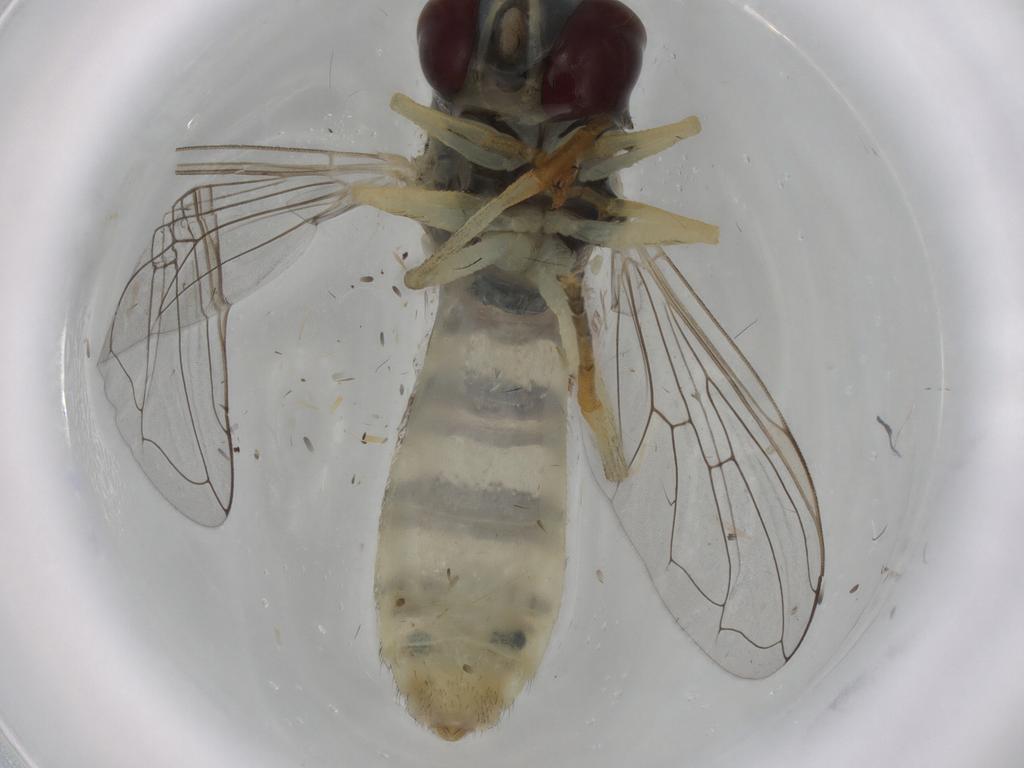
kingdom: Animalia
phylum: Arthropoda
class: Insecta
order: Diptera
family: Syrphidae
